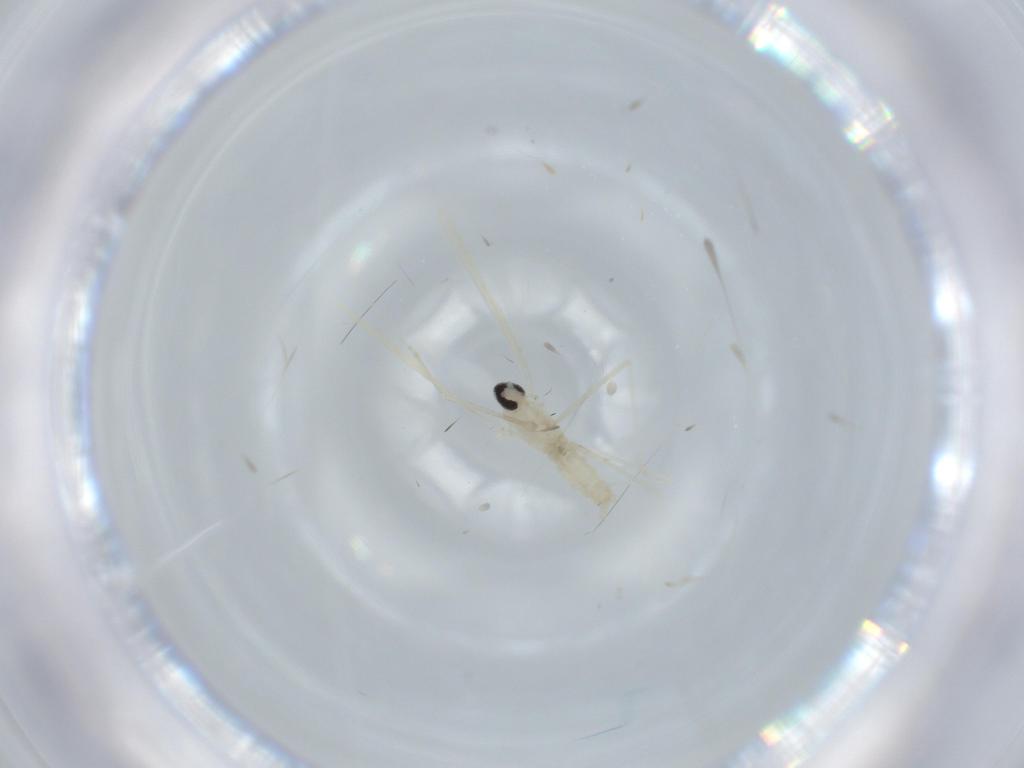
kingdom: Animalia
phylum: Arthropoda
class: Insecta
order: Diptera
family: Cecidomyiidae
